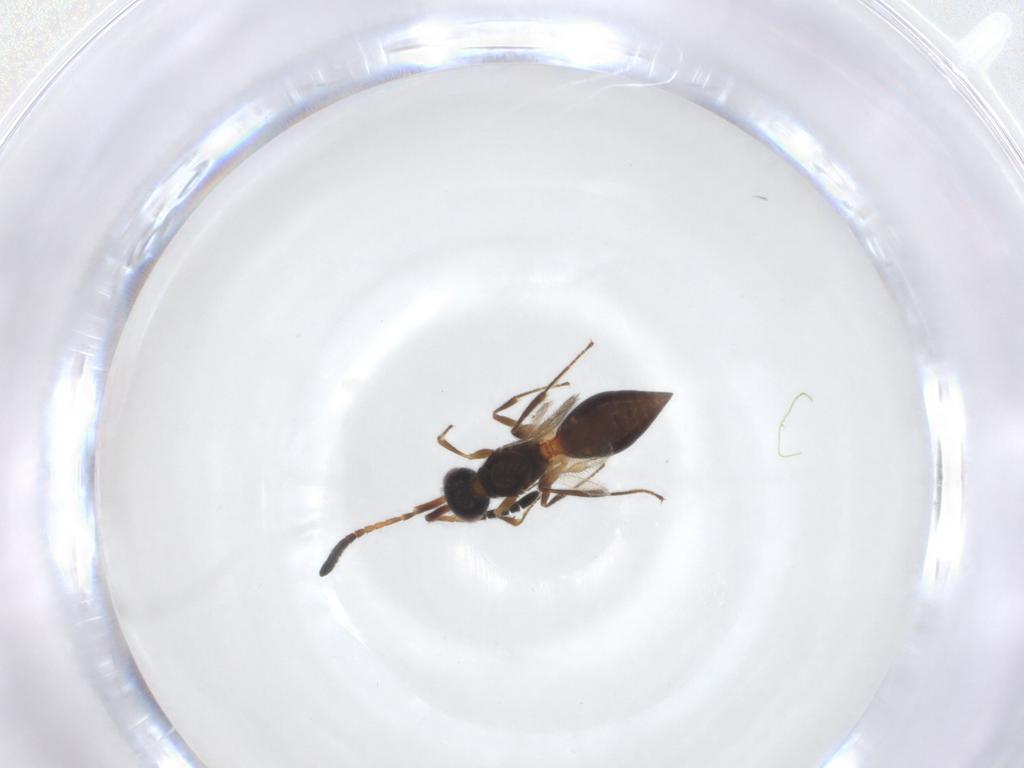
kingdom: Animalia
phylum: Arthropoda
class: Insecta
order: Hymenoptera
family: Megaspilidae
